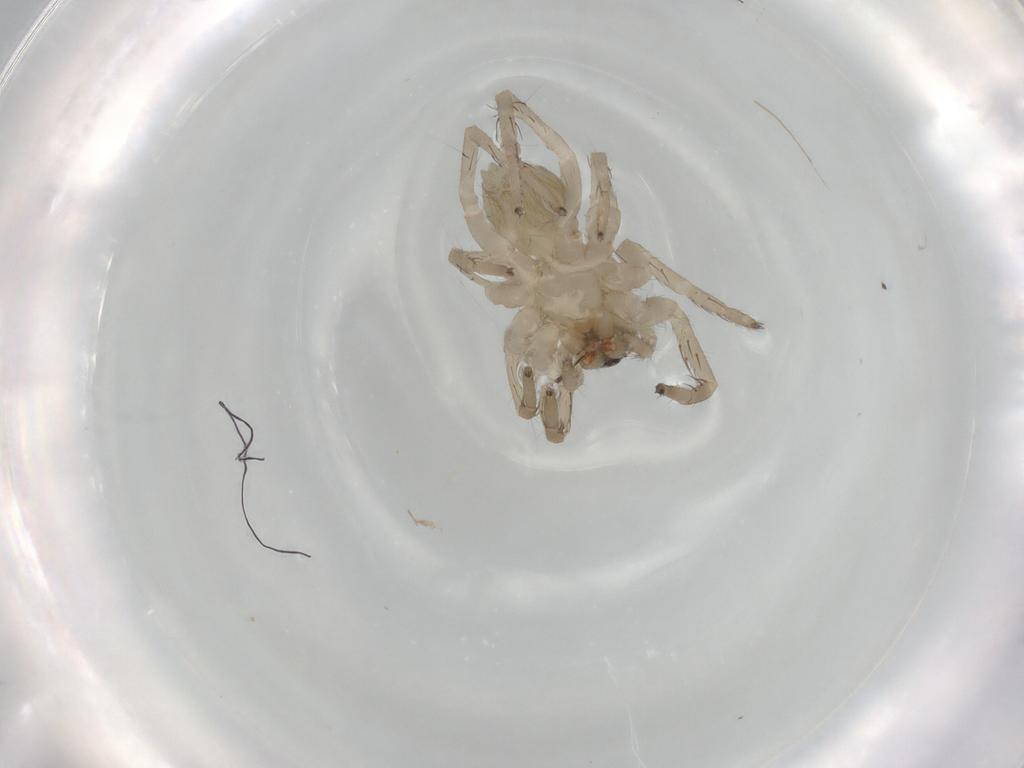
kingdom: Animalia
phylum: Arthropoda
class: Arachnida
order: Araneae
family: Lycosidae
